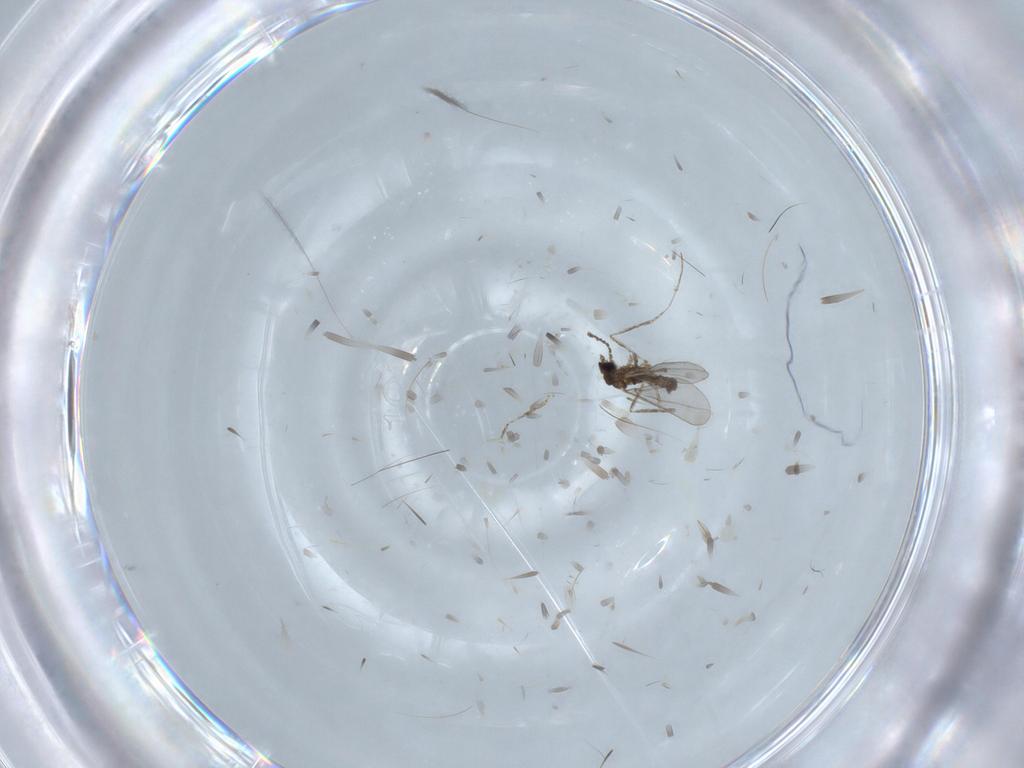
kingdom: Animalia
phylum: Arthropoda
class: Insecta
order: Diptera
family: Cecidomyiidae
